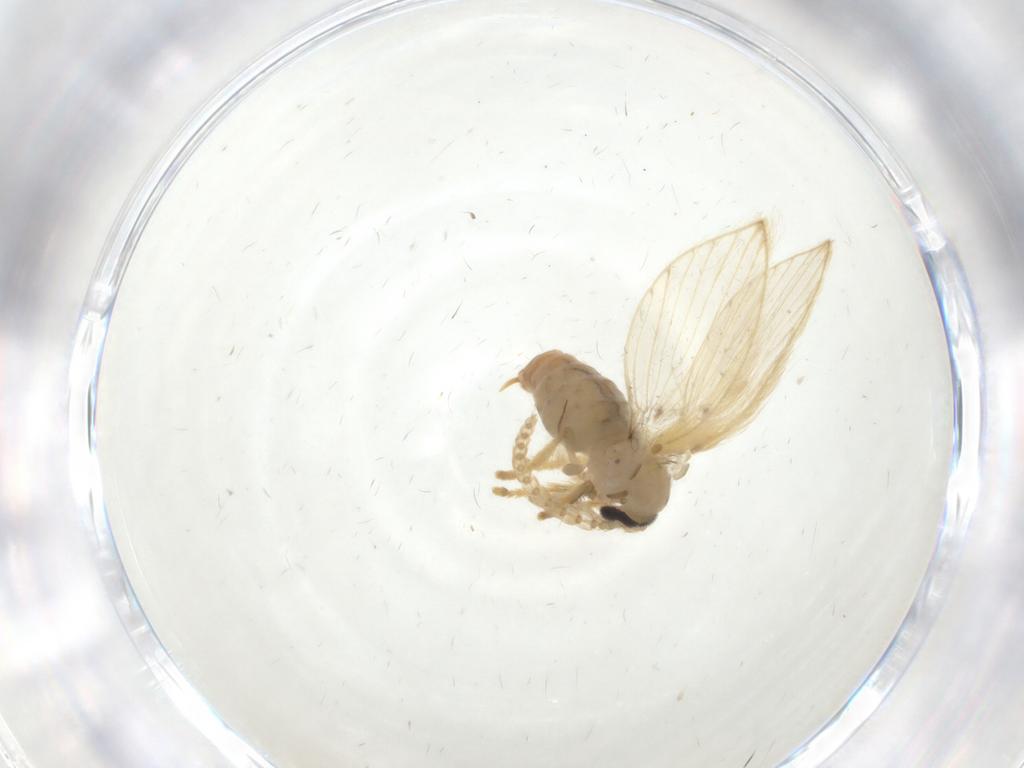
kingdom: Animalia
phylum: Arthropoda
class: Insecta
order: Diptera
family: Psychodidae
